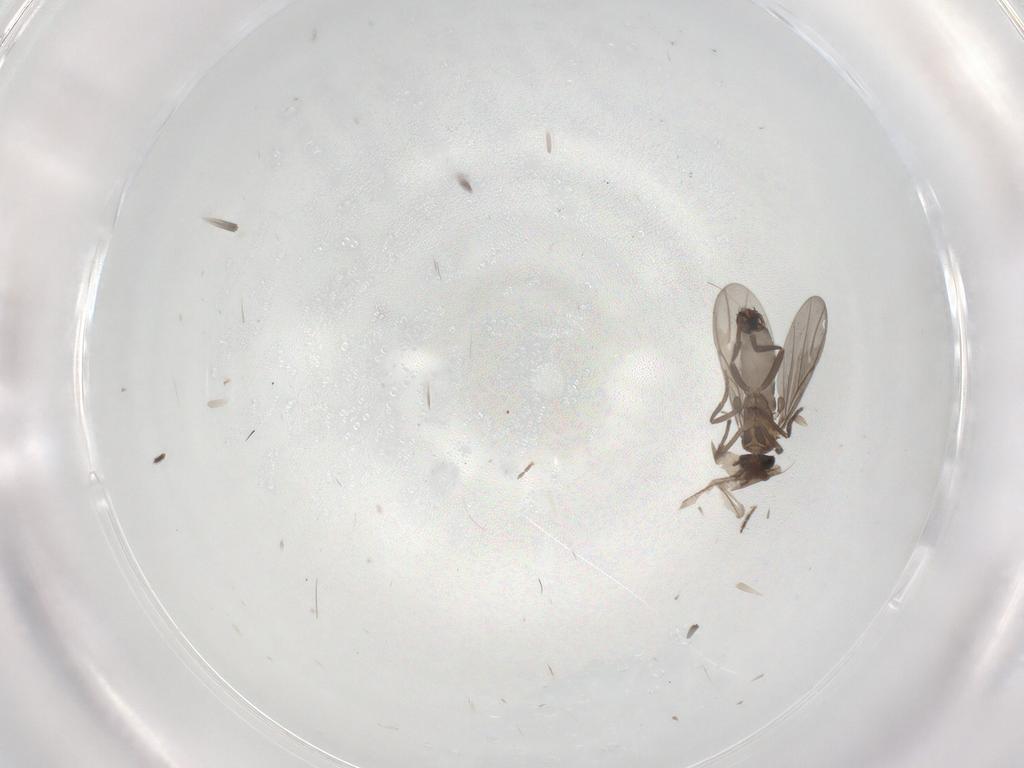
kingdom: Animalia
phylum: Arthropoda
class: Insecta
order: Diptera
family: Phoridae
